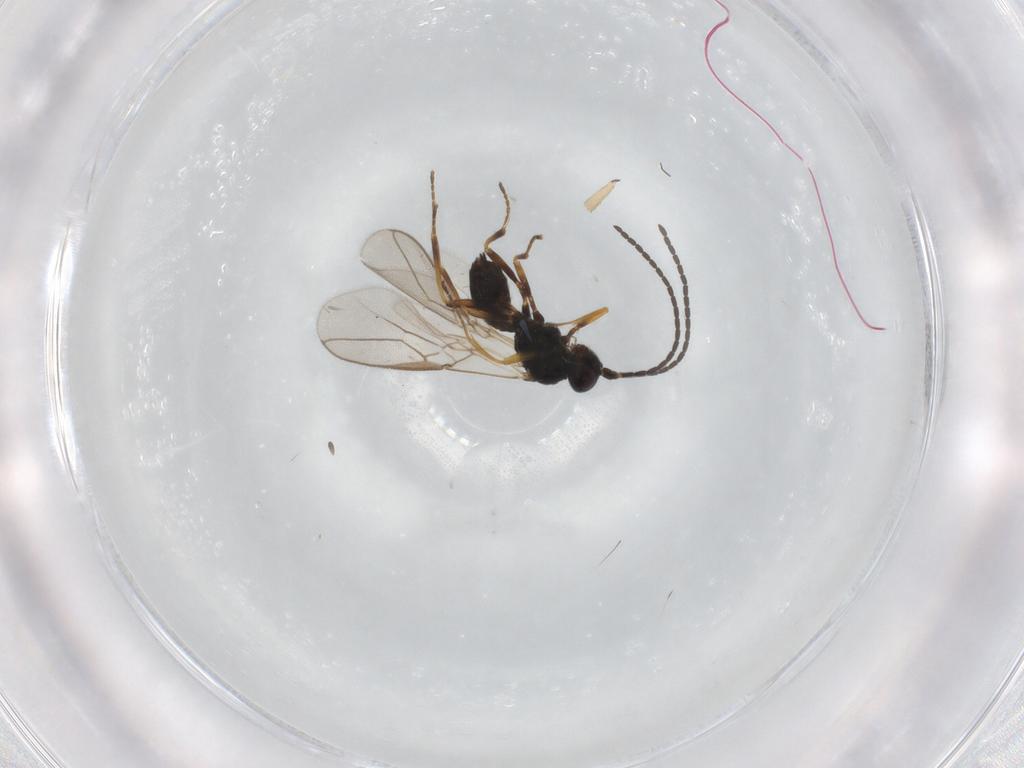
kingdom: Animalia
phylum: Arthropoda
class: Insecta
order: Hymenoptera
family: Braconidae
